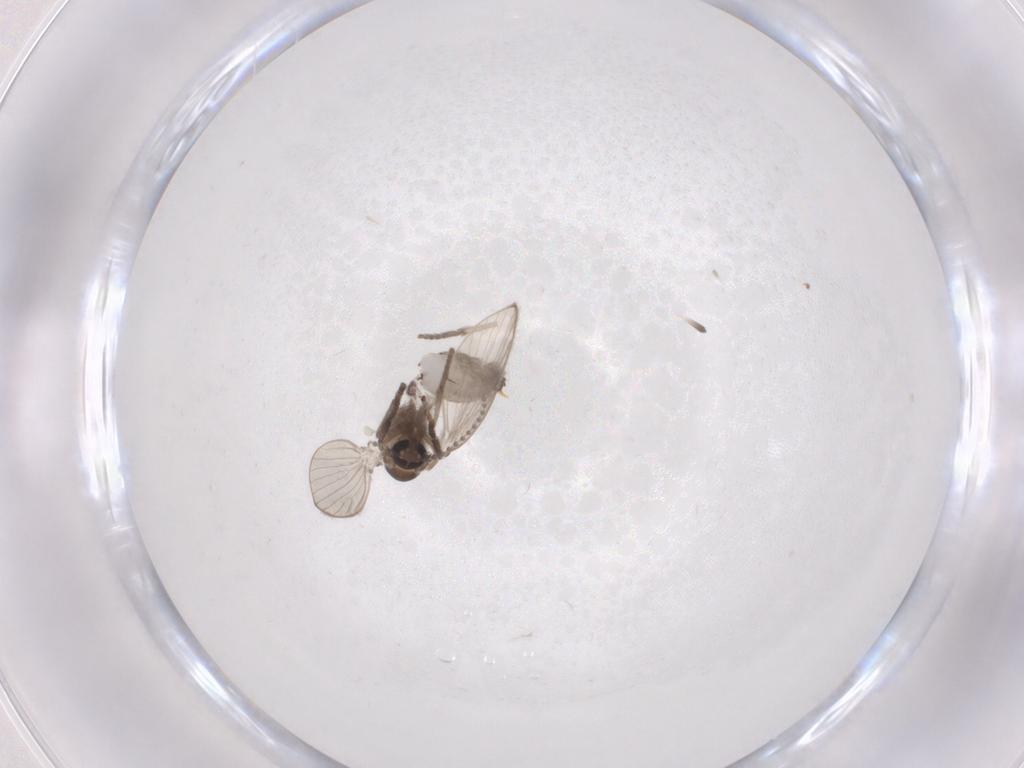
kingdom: Animalia
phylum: Arthropoda
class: Insecta
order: Diptera
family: Psychodidae
